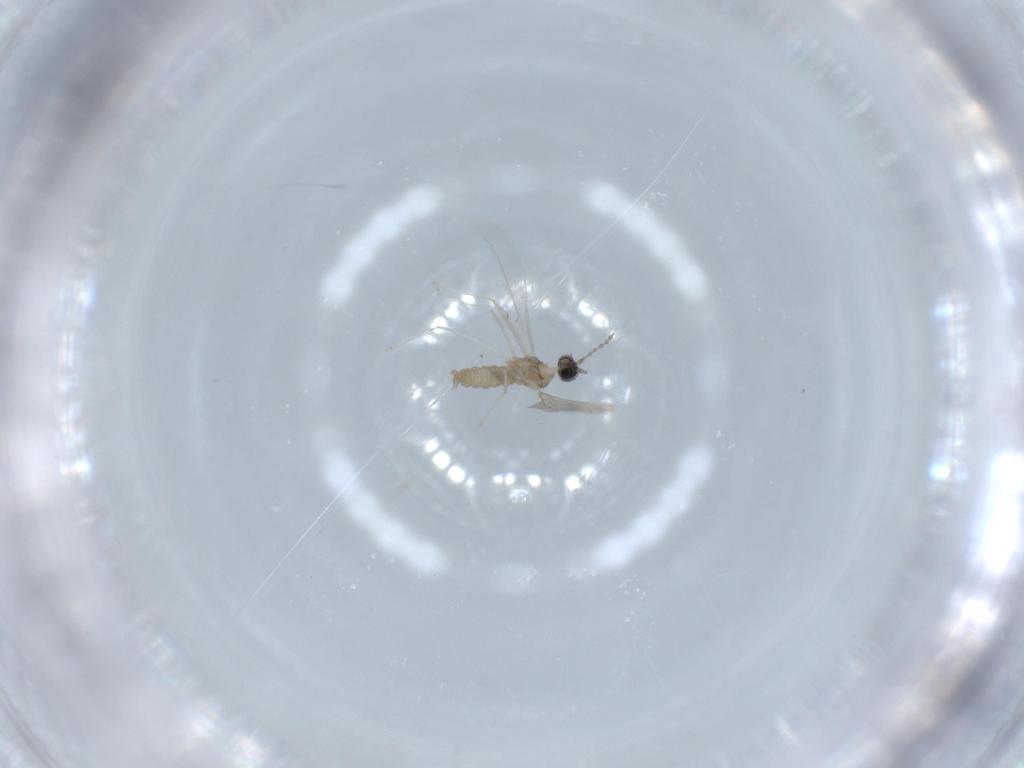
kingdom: Animalia
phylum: Arthropoda
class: Insecta
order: Diptera
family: Cecidomyiidae
